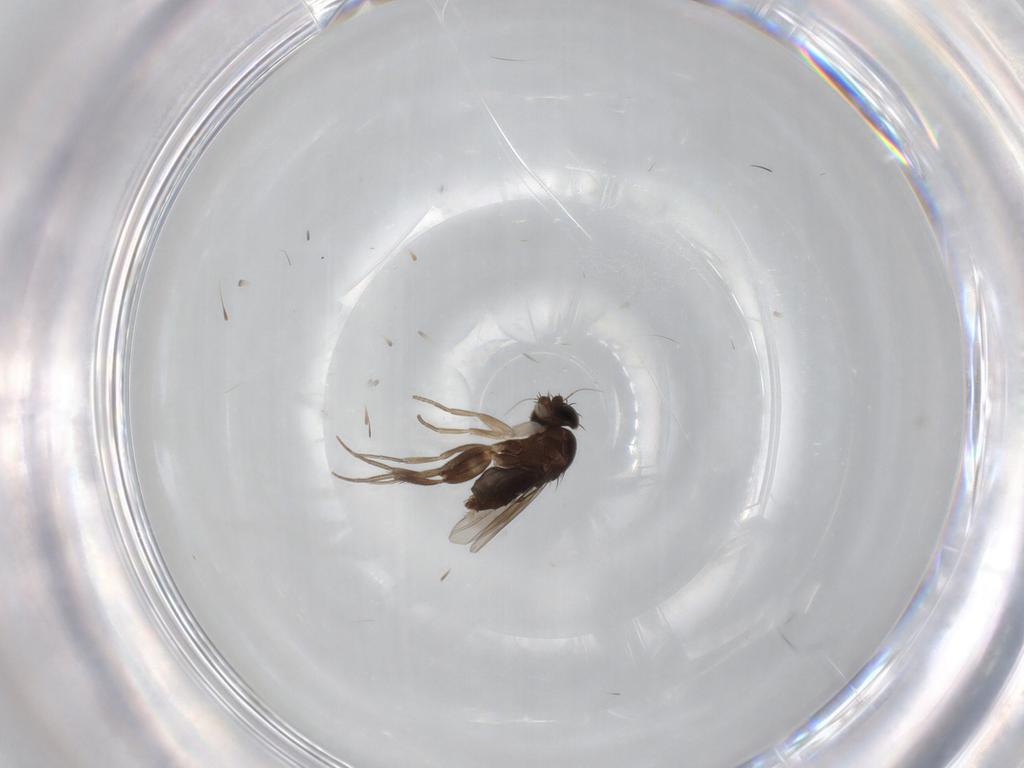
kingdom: Animalia
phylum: Arthropoda
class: Insecta
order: Diptera
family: Phoridae
